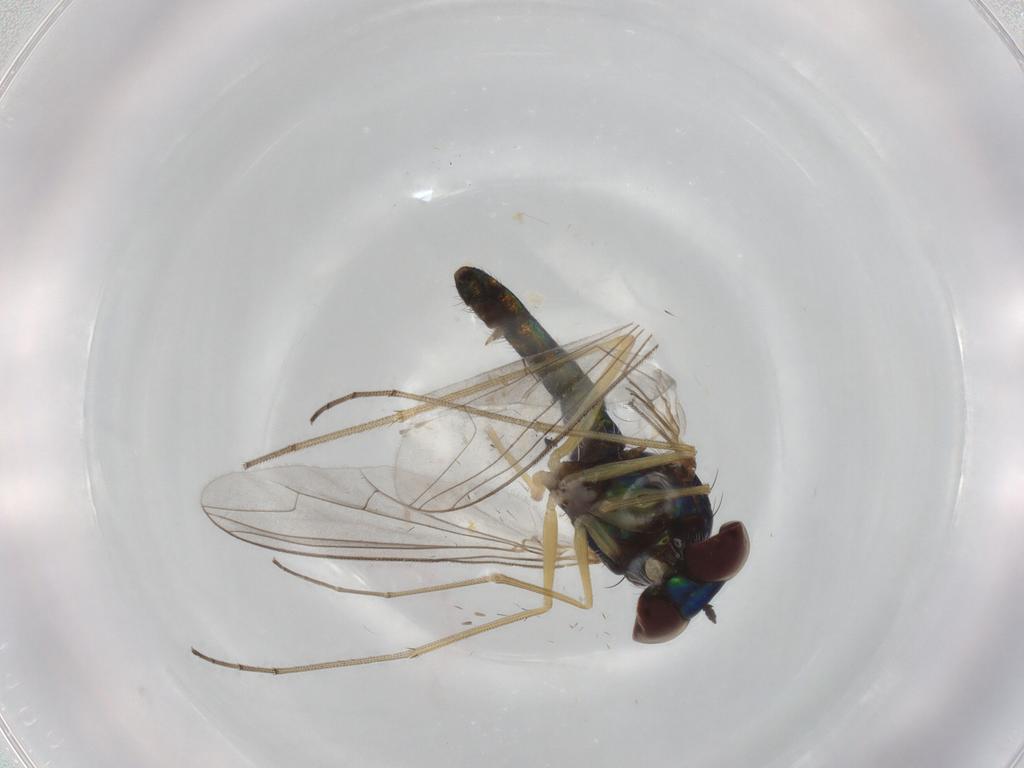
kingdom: Animalia
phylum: Arthropoda
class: Insecta
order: Diptera
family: Dolichopodidae
